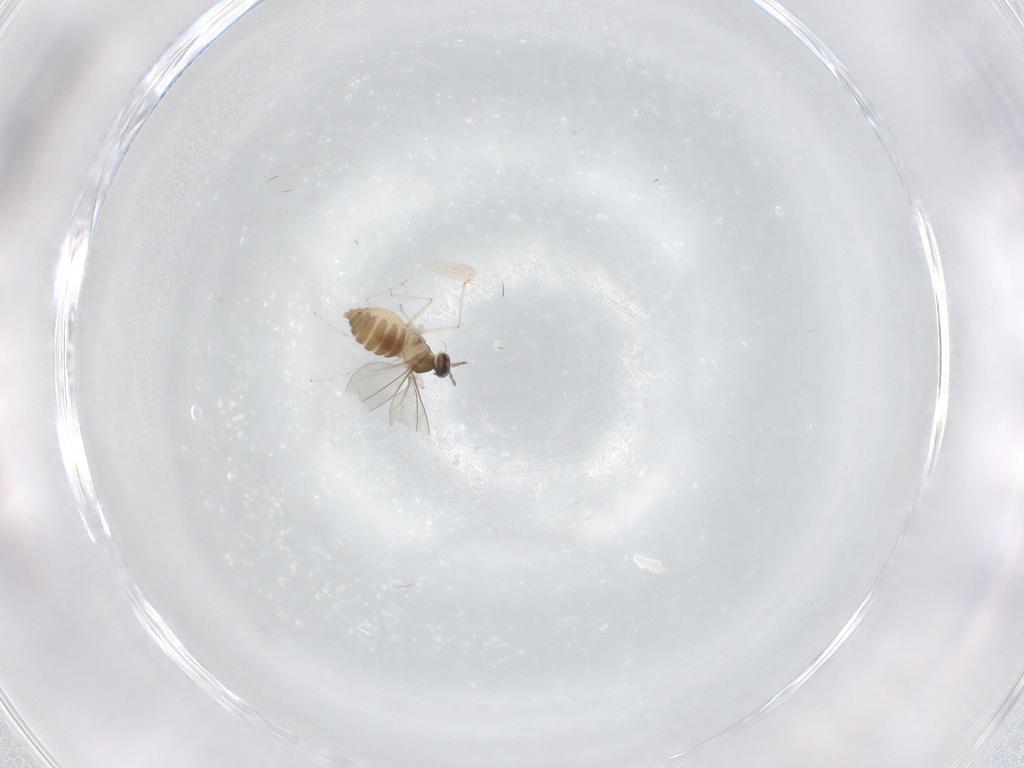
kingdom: Animalia
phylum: Arthropoda
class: Insecta
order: Diptera
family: Cecidomyiidae
